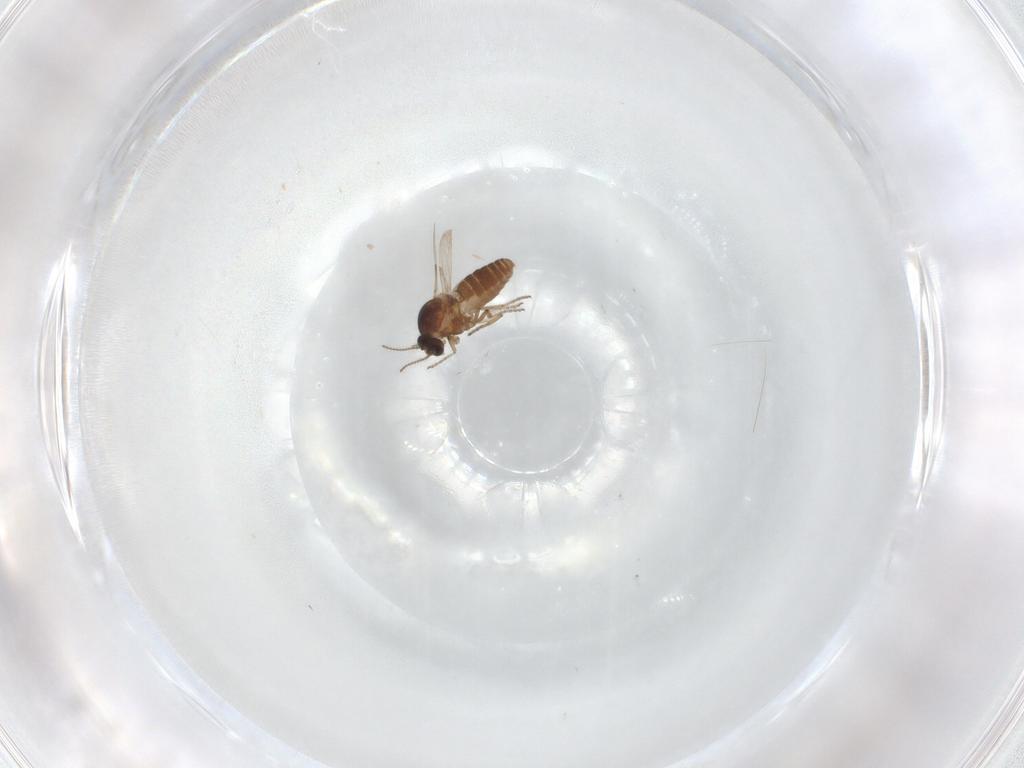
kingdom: Animalia
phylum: Arthropoda
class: Insecta
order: Diptera
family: Ceratopogonidae
